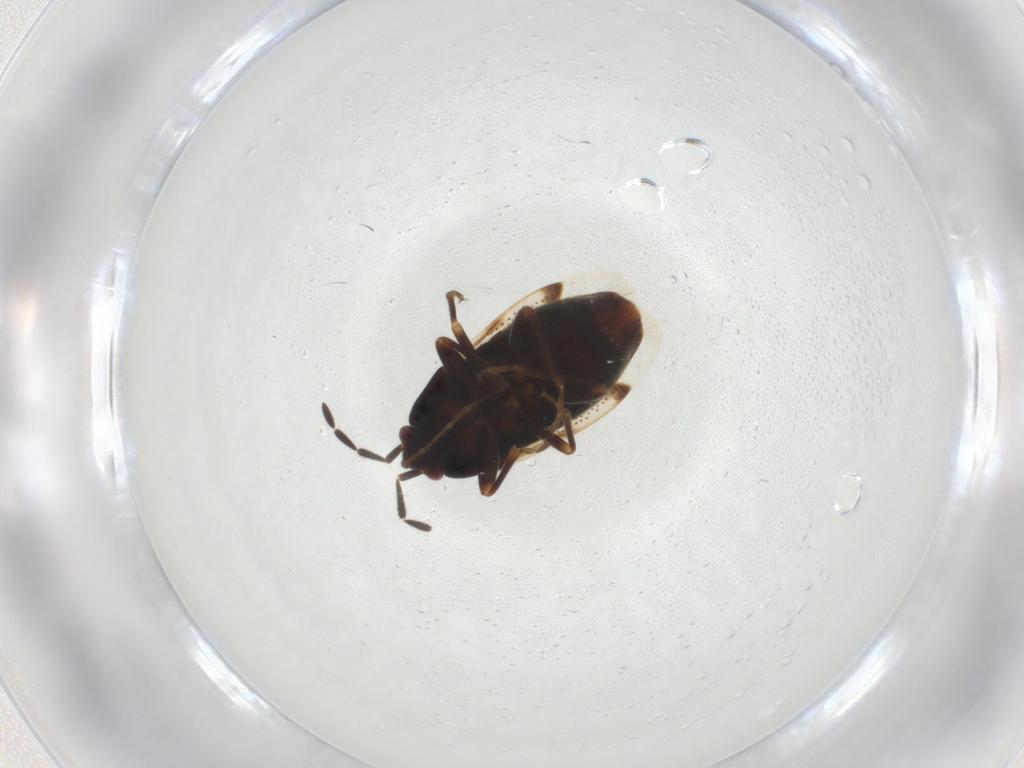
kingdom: Animalia
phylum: Arthropoda
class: Insecta
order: Hemiptera
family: Rhyparochromidae
